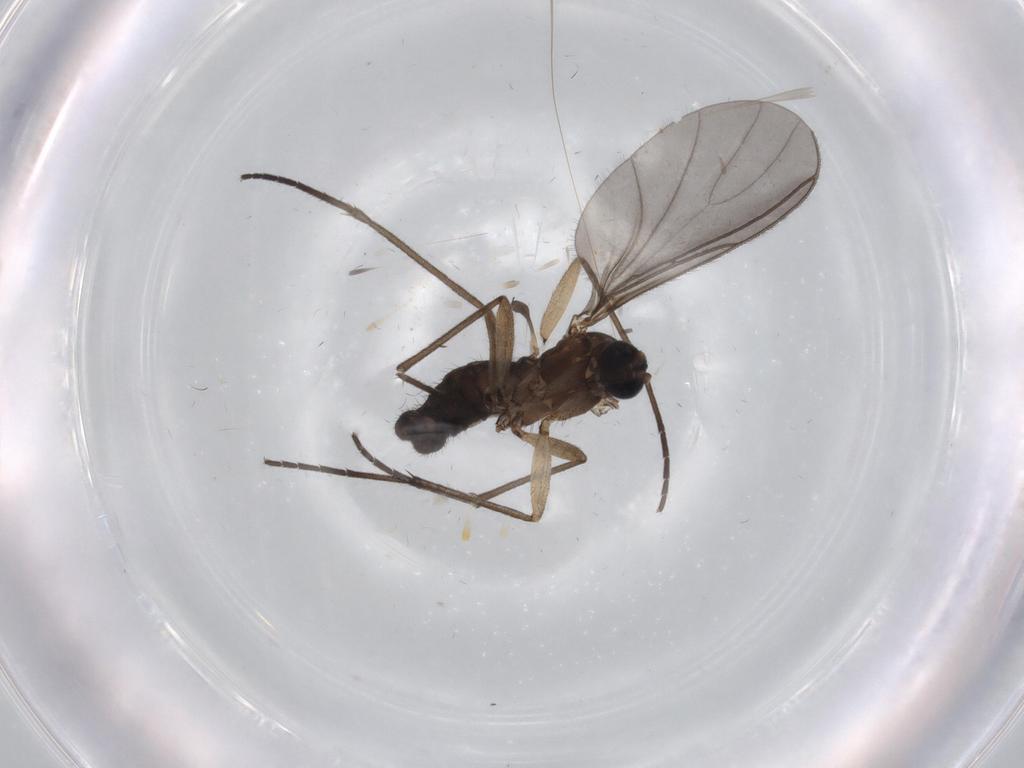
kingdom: Animalia
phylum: Arthropoda
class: Insecta
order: Diptera
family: Sciaridae
